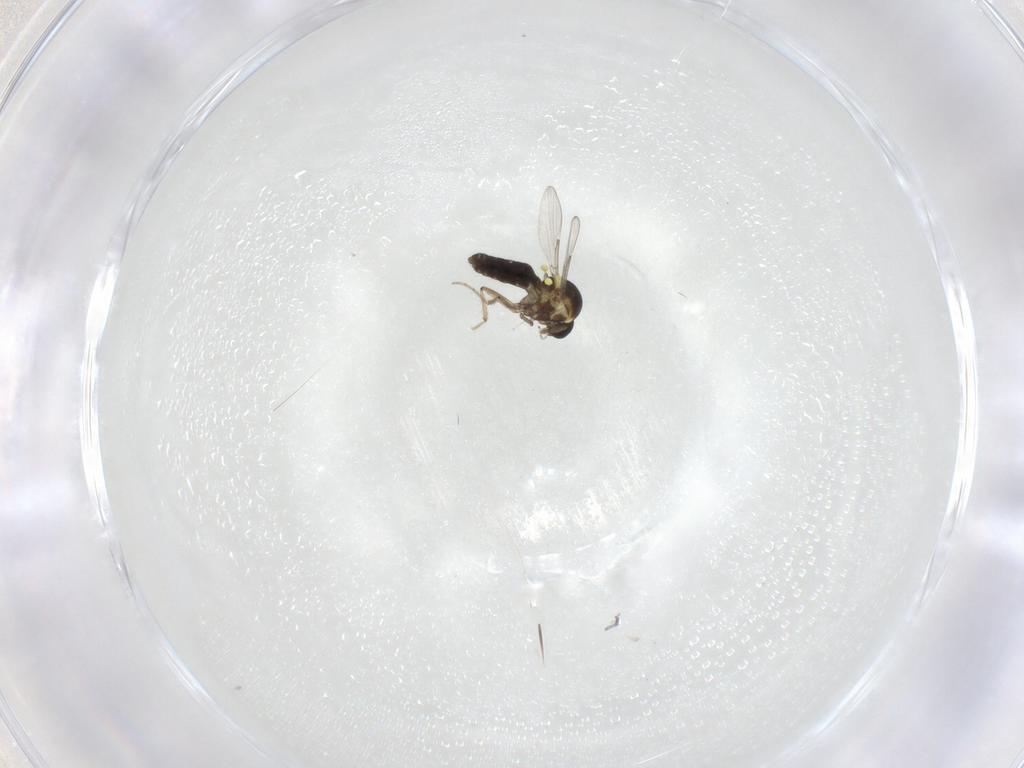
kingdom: Animalia
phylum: Arthropoda
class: Insecta
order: Diptera
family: Ceratopogonidae
